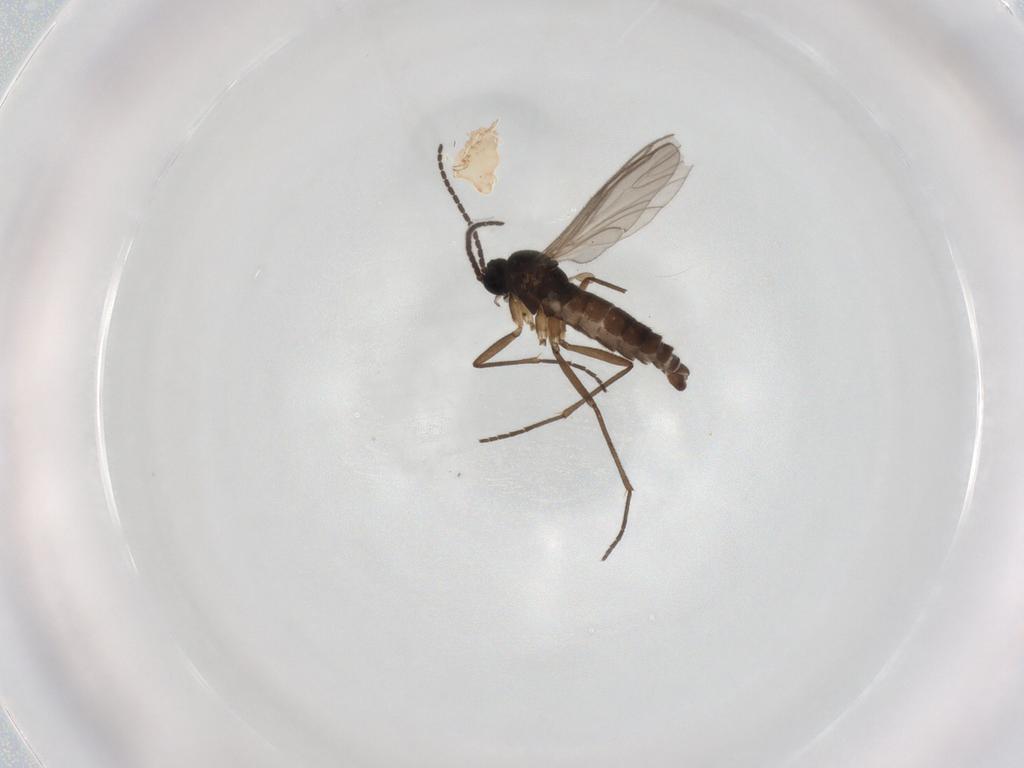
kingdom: Animalia
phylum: Arthropoda
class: Insecta
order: Diptera
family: Sciaridae
